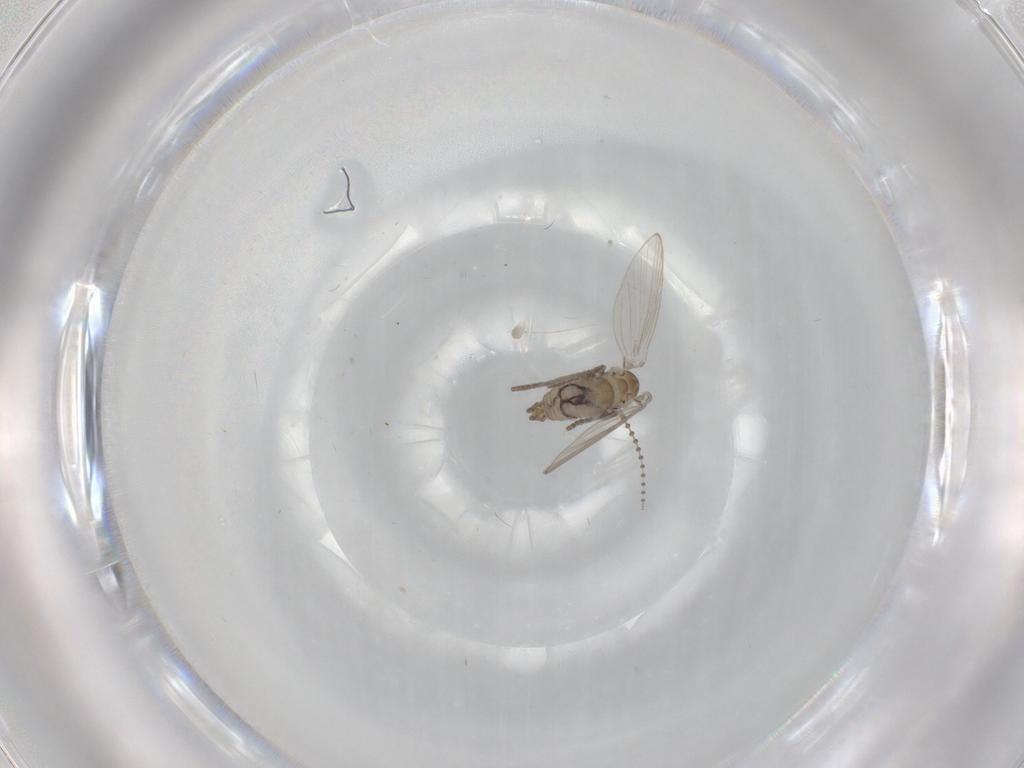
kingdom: Animalia
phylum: Arthropoda
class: Insecta
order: Diptera
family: Psychodidae
